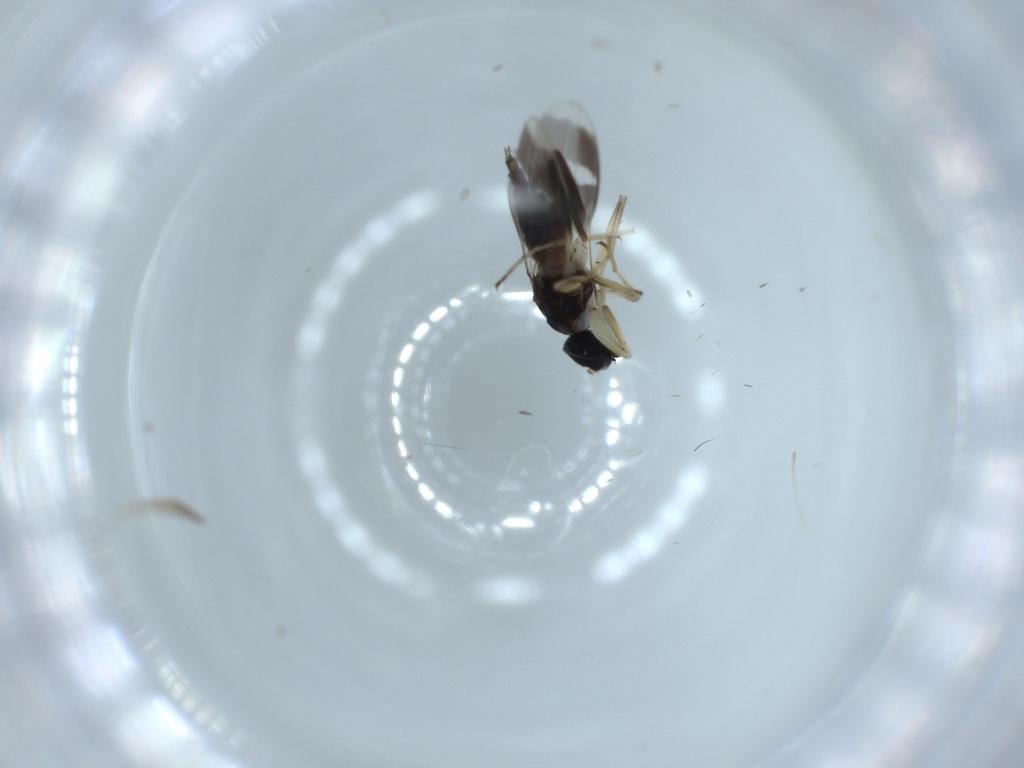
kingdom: Animalia
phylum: Arthropoda
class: Insecta
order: Diptera
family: Hybotidae
